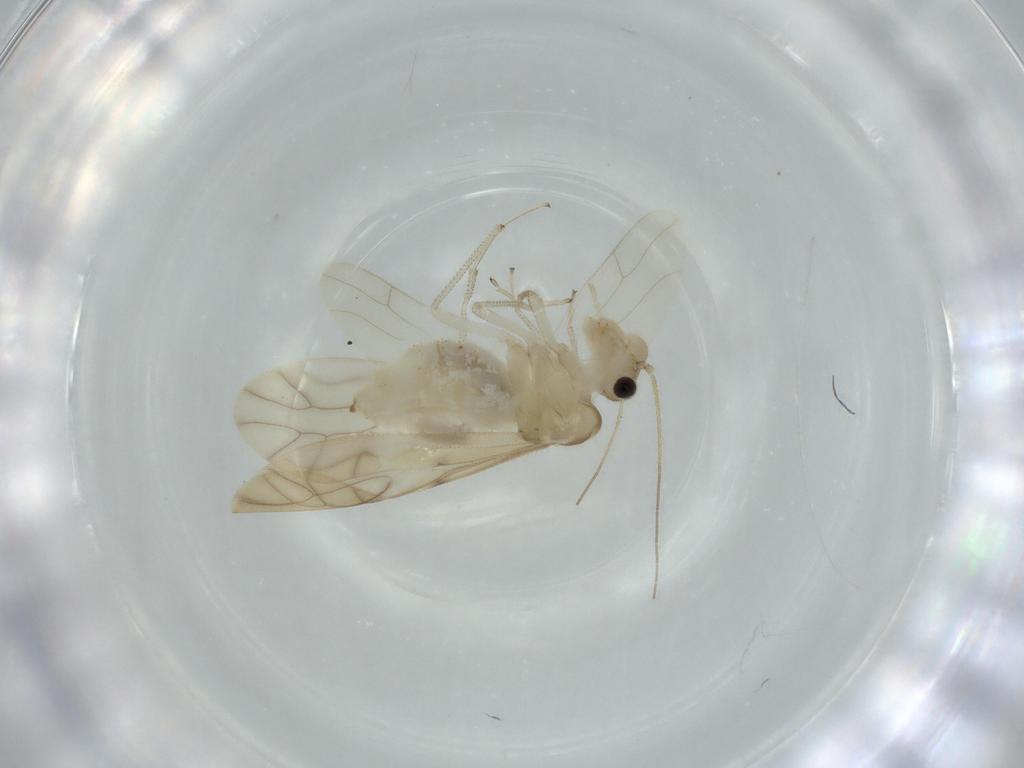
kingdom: Animalia
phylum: Arthropoda
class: Insecta
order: Psocodea
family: Caeciliusidae
